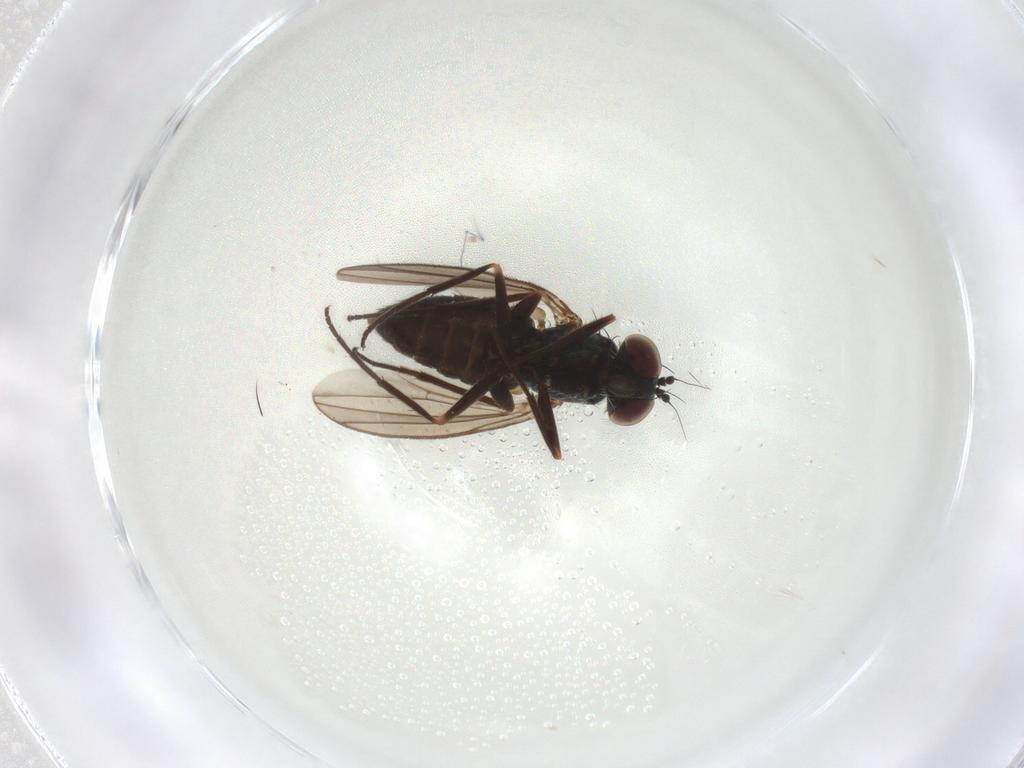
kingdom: Animalia
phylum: Arthropoda
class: Insecta
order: Diptera
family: Dolichopodidae
